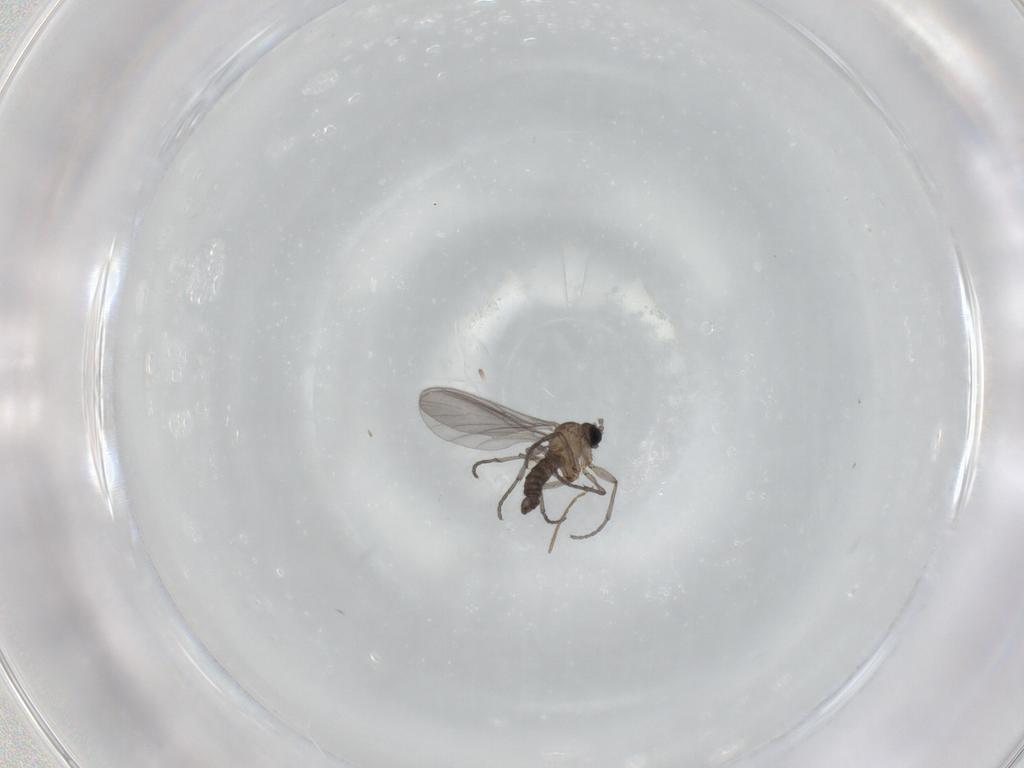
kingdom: Animalia
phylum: Arthropoda
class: Insecta
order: Diptera
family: Sciaridae
